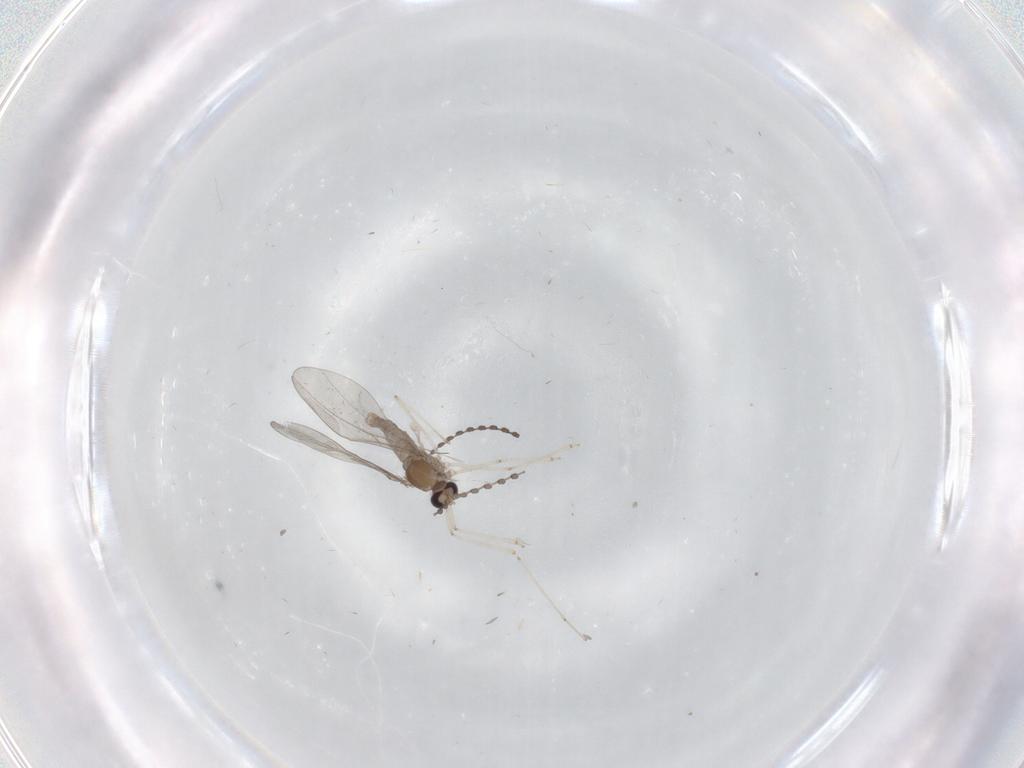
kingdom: Animalia
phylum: Arthropoda
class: Insecta
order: Diptera
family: Cecidomyiidae
